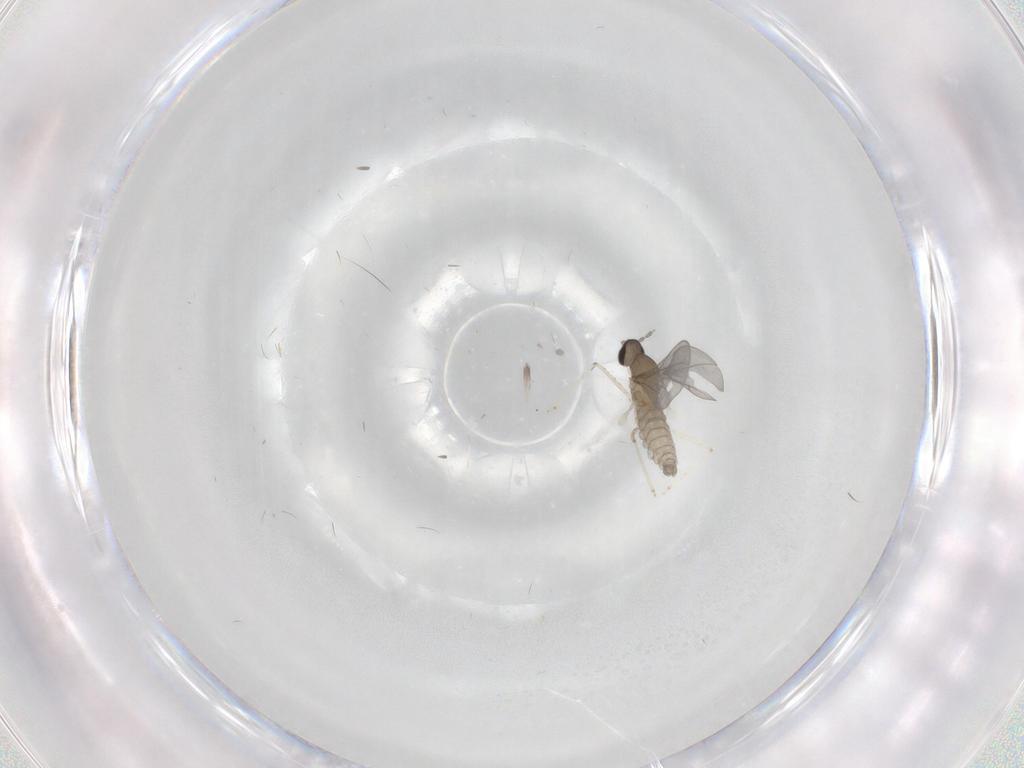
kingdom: Animalia
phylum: Arthropoda
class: Insecta
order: Diptera
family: Cecidomyiidae
